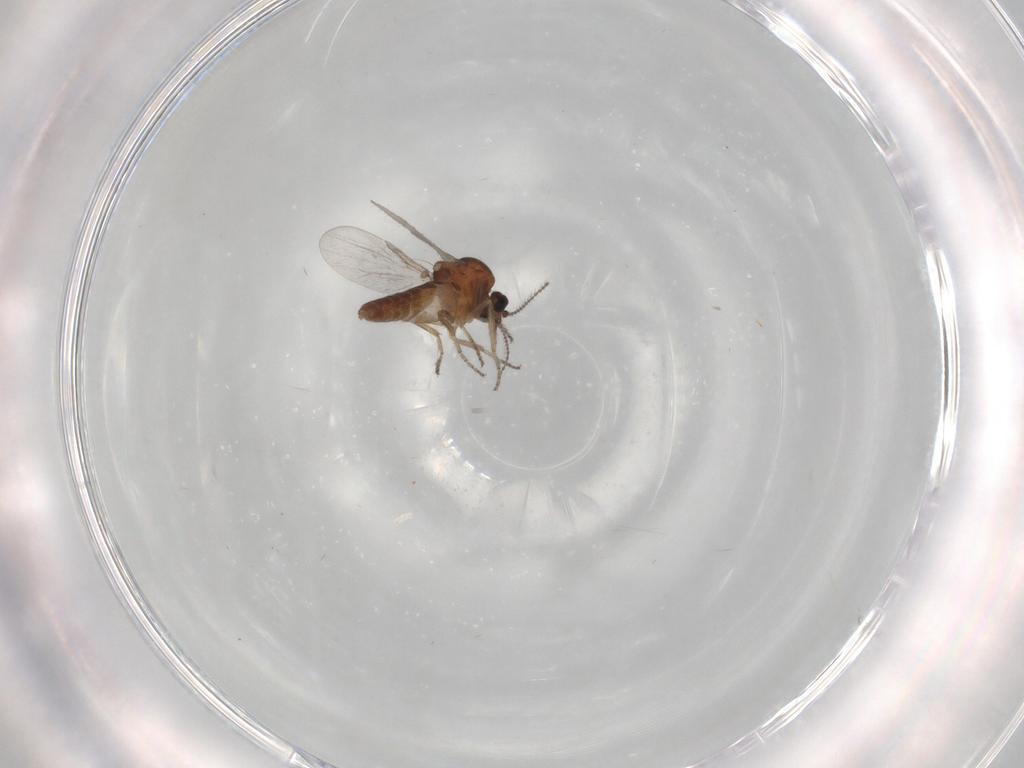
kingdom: Animalia
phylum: Arthropoda
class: Insecta
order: Diptera
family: Ceratopogonidae
